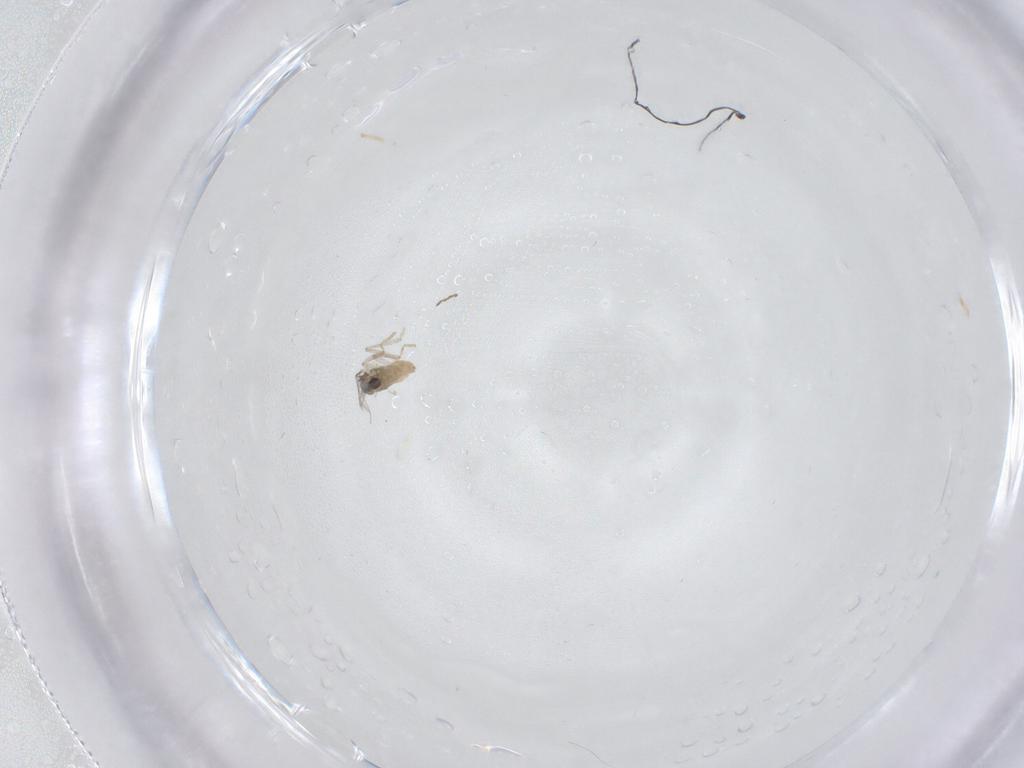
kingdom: Animalia
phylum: Arthropoda
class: Insecta
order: Diptera
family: Cecidomyiidae
